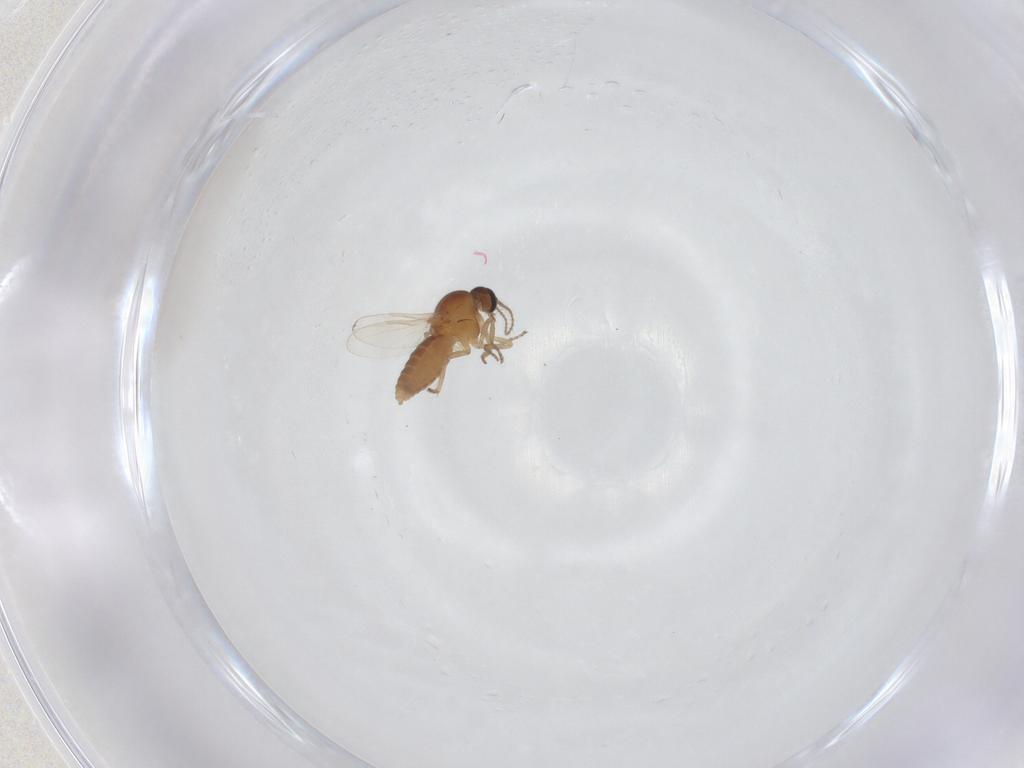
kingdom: Animalia
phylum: Arthropoda
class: Insecta
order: Diptera
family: Ceratopogonidae
